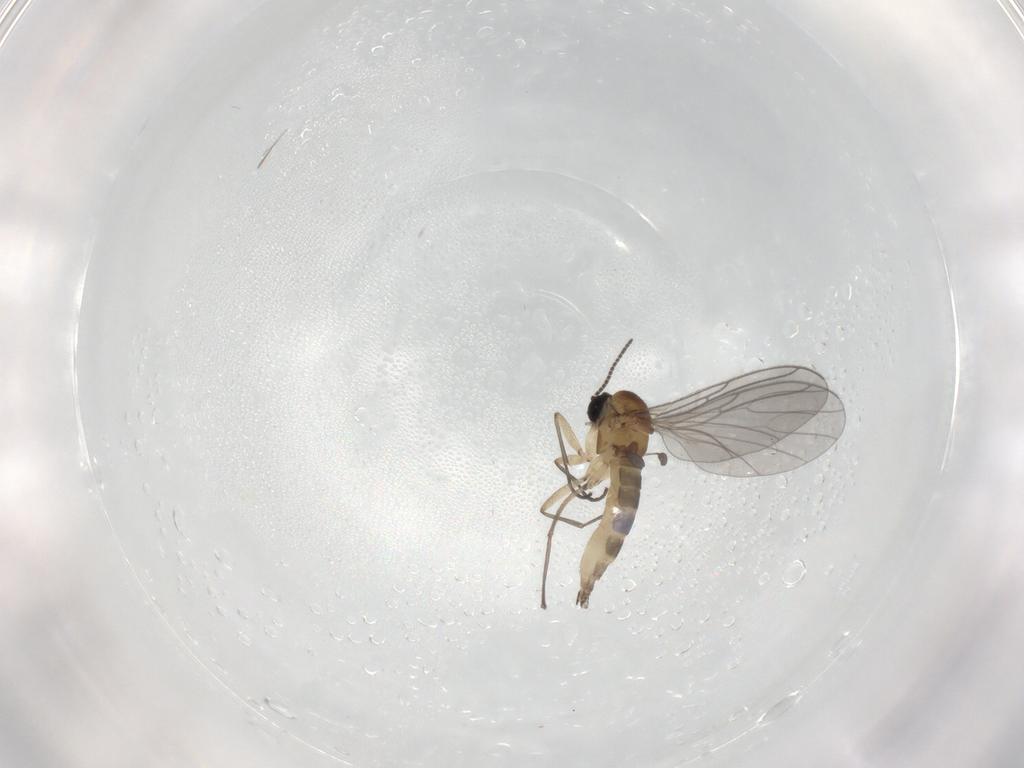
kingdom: Animalia
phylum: Arthropoda
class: Insecta
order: Diptera
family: Sciaridae
